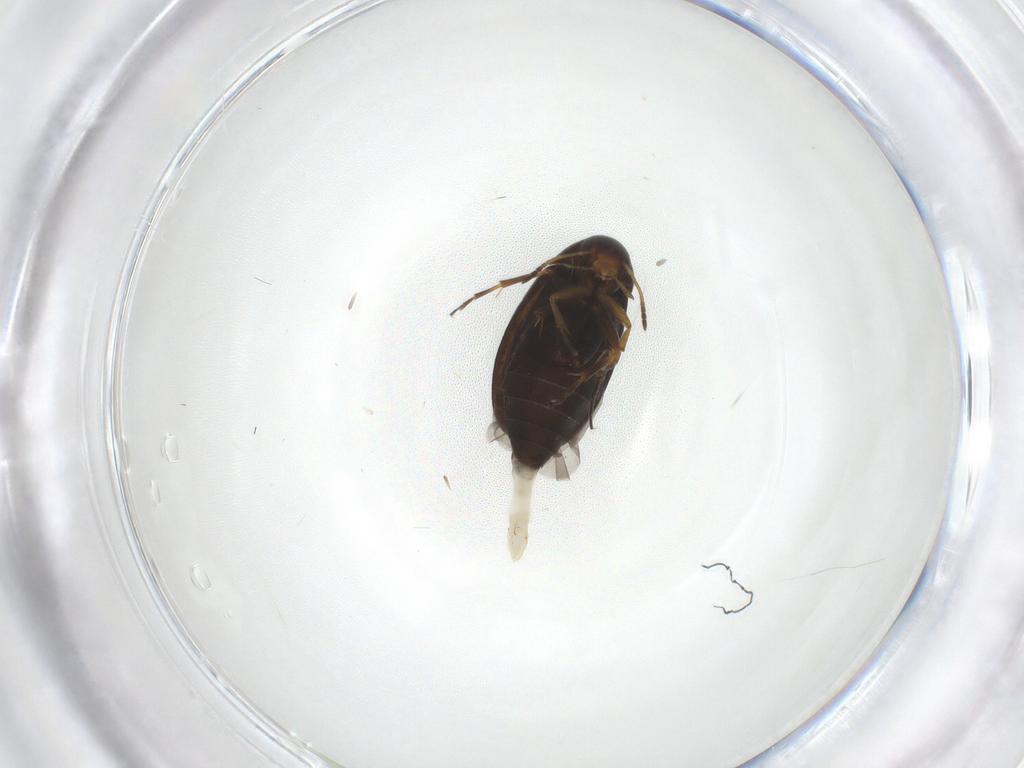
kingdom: Animalia
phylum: Arthropoda
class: Insecta
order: Coleoptera
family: Scraptiidae
